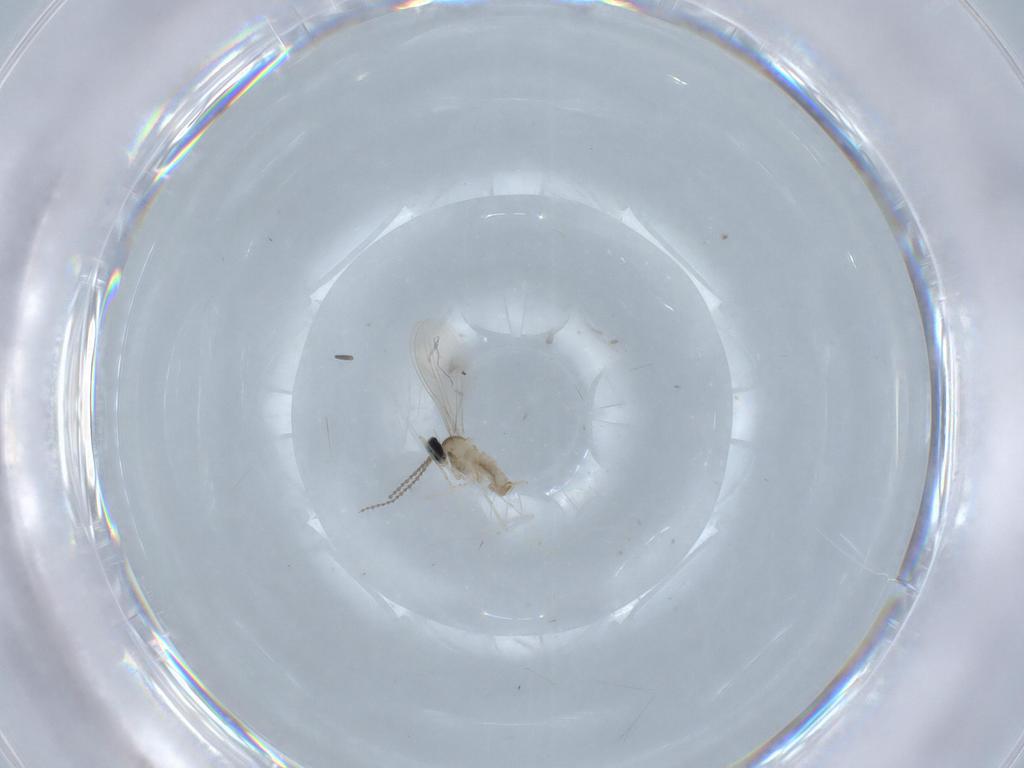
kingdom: Animalia
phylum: Arthropoda
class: Insecta
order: Diptera
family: Cecidomyiidae
